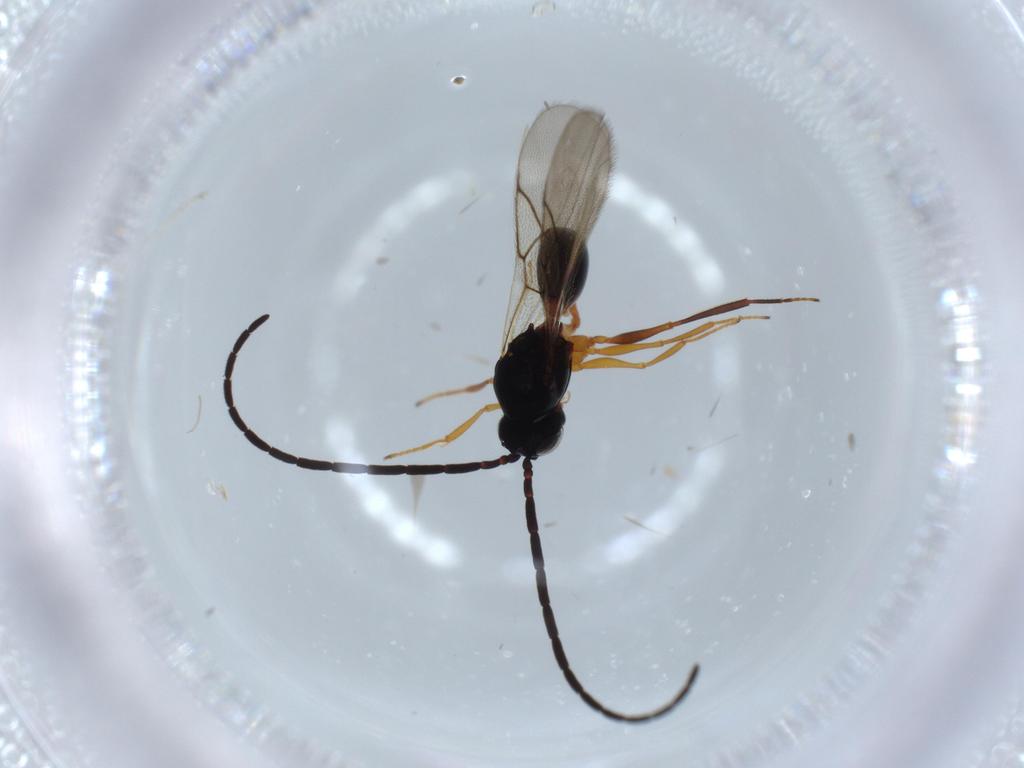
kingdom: Animalia
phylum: Arthropoda
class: Insecta
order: Hymenoptera
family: Figitidae
